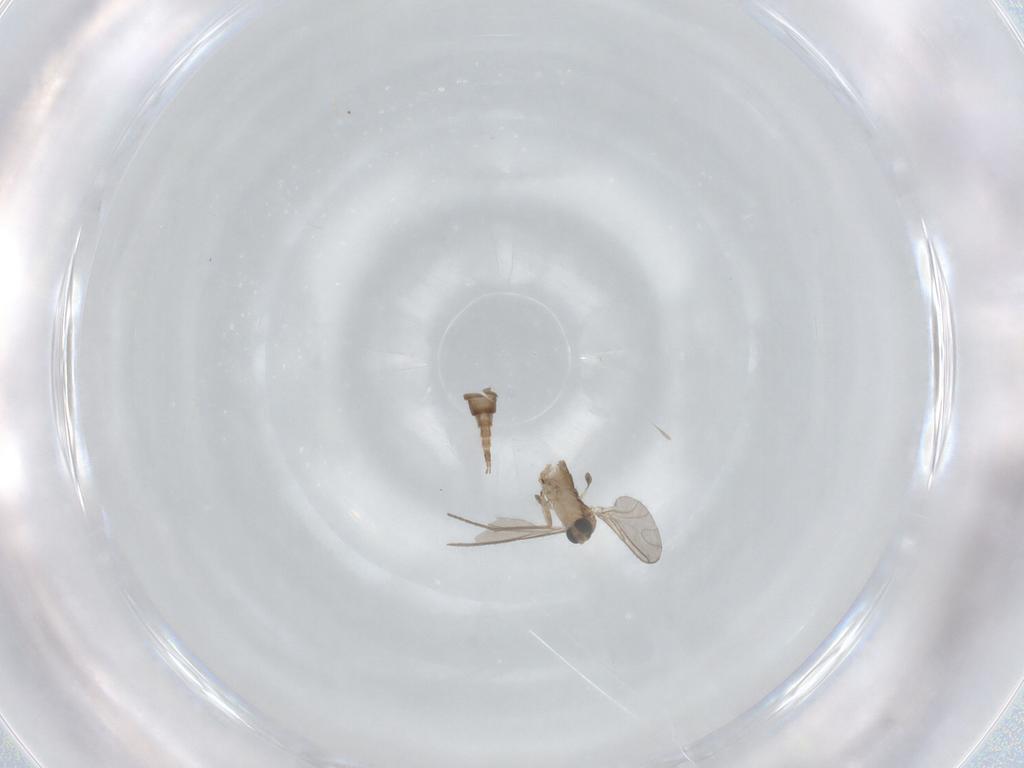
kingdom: Animalia
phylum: Arthropoda
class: Insecta
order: Diptera
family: Sciaridae
